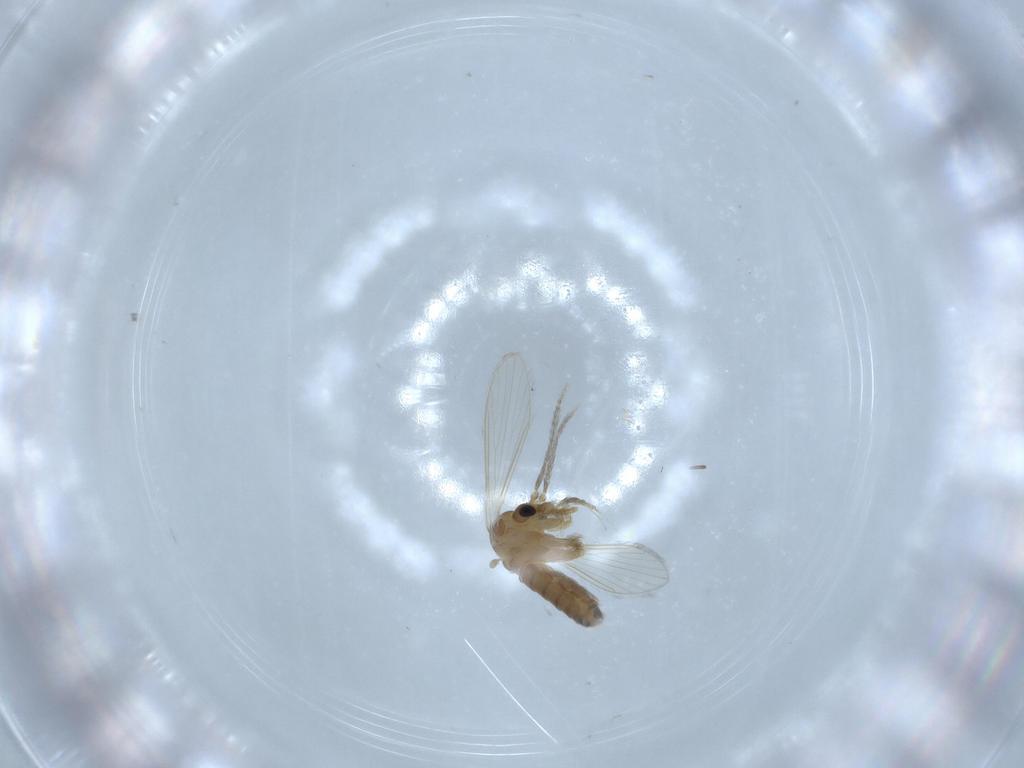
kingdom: Animalia
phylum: Arthropoda
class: Insecta
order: Diptera
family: Psychodidae
